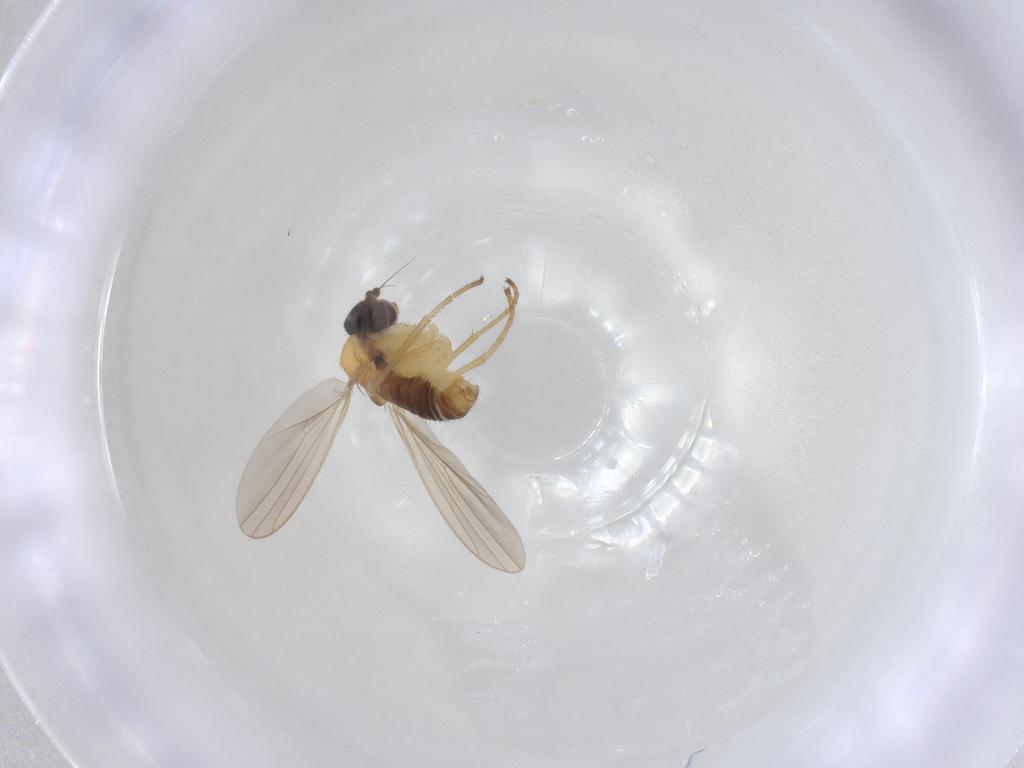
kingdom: Animalia
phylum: Arthropoda
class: Insecta
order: Diptera
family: Dolichopodidae
